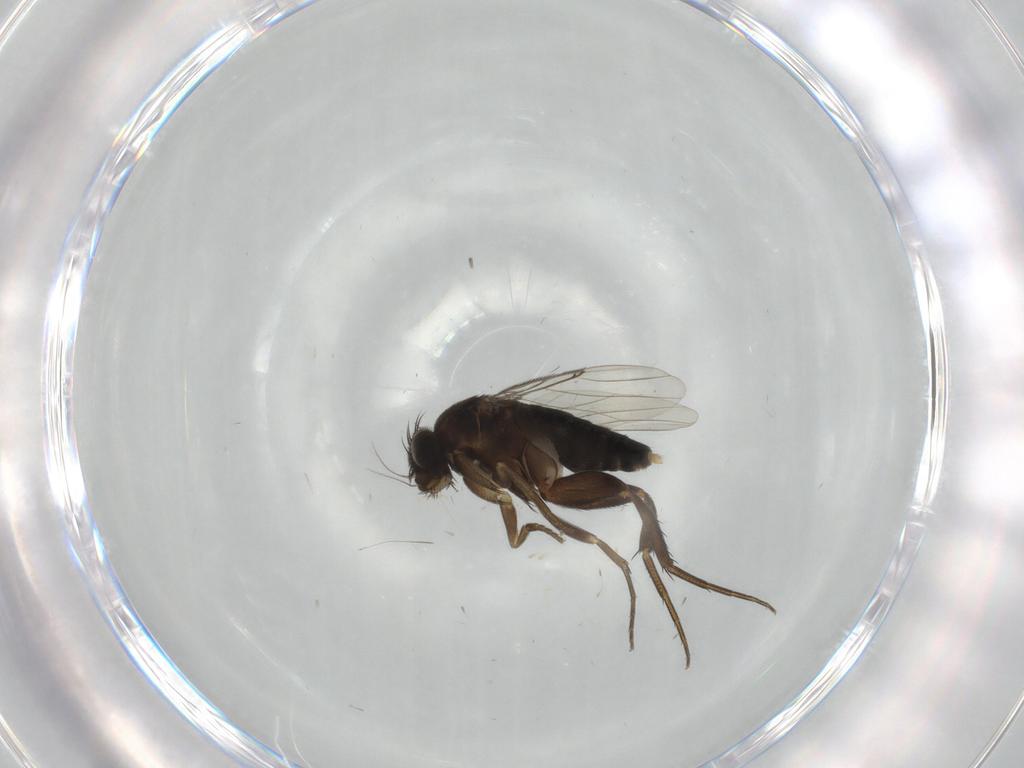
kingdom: Animalia
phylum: Arthropoda
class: Insecta
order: Diptera
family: Phoridae
